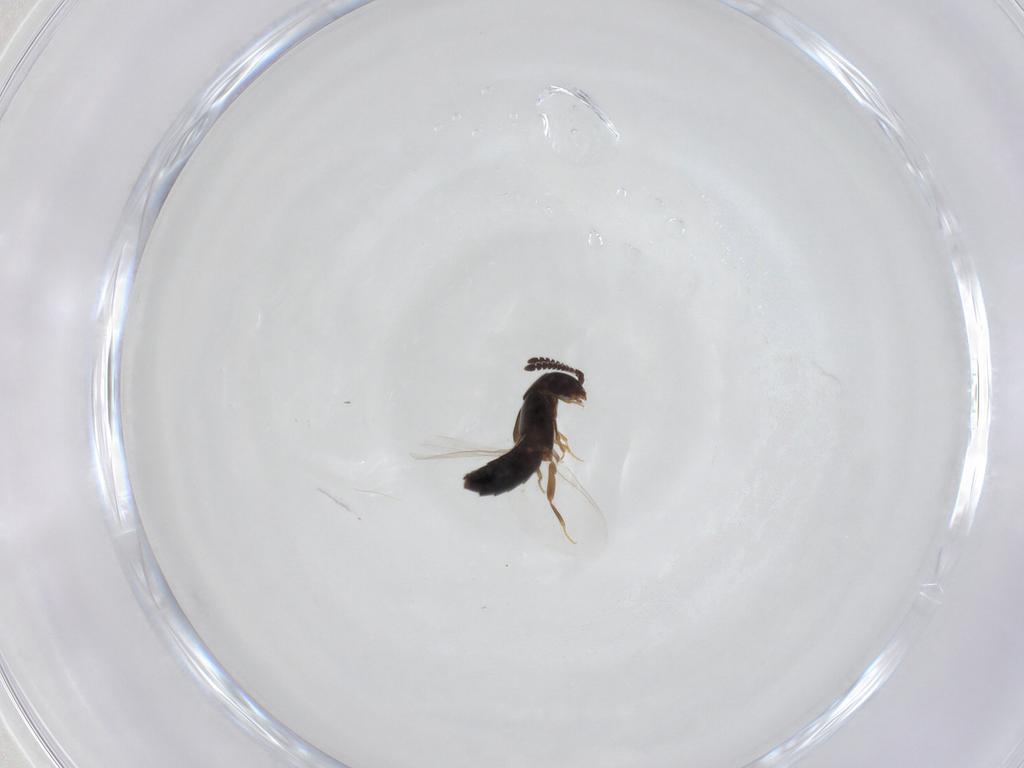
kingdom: Animalia
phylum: Arthropoda
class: Insecta
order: Coleoptera
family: Staphylinidae
